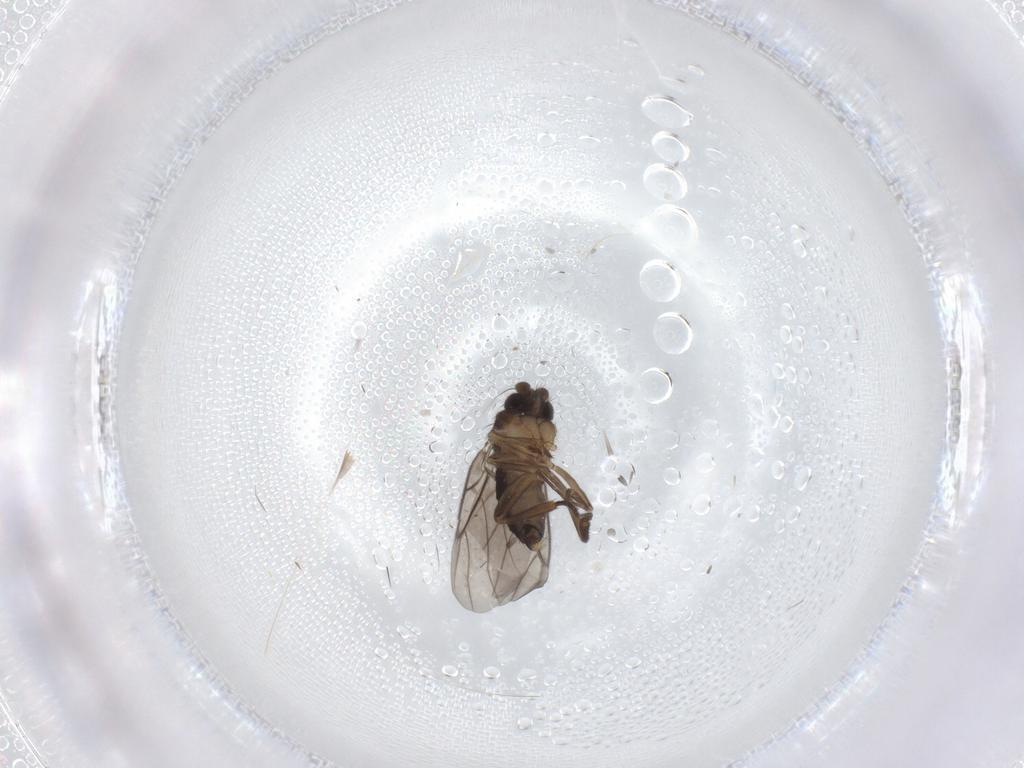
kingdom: Animalia
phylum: Arthropoda
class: Insecta
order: Diptera
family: Phoridae
